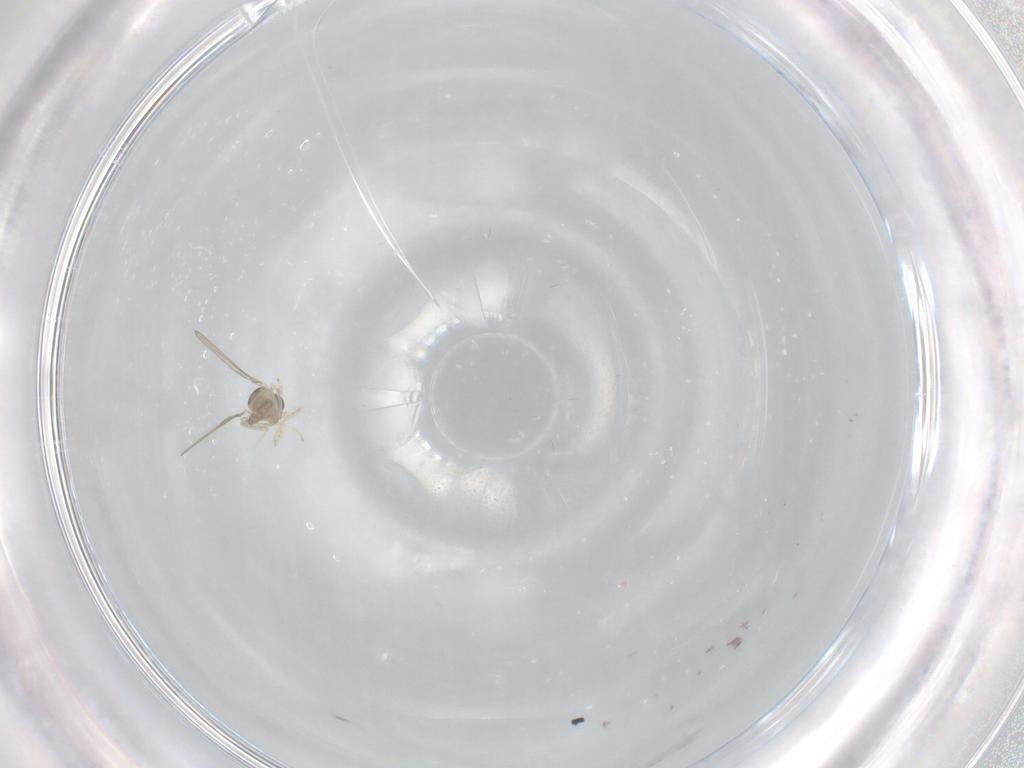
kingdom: Animalia
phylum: Arthropoda
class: Insecta
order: Diptera
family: Cecidomyiidae
